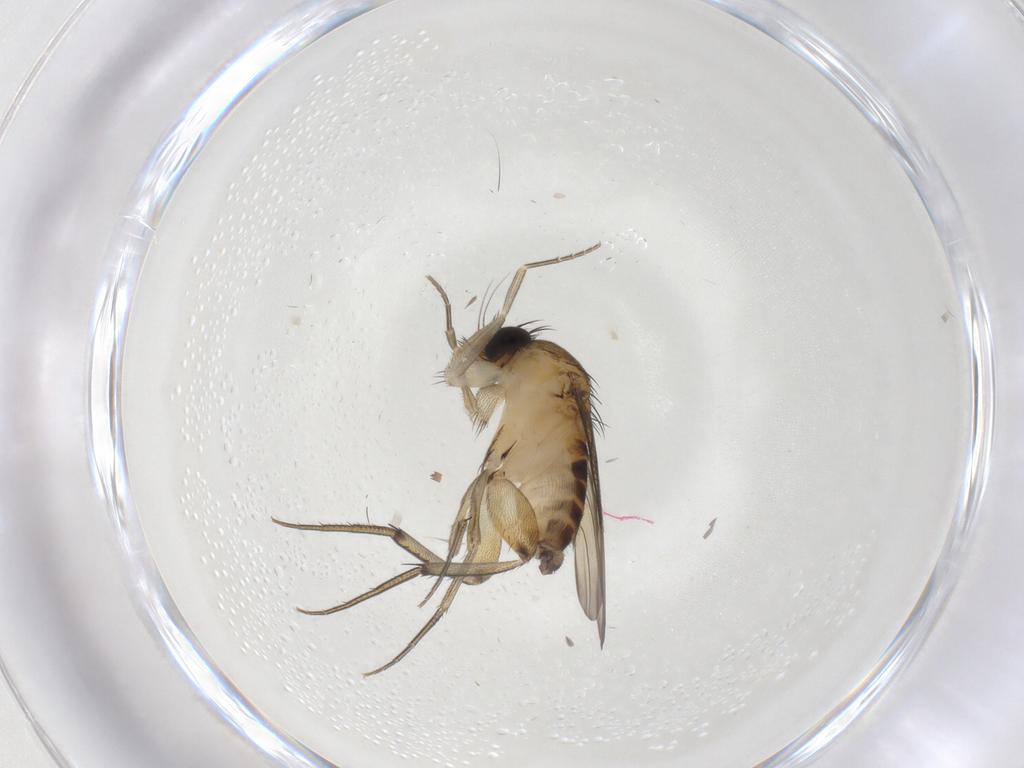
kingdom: Animalia
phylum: Arthropoda
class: Insecta
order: Diptera
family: Phoridae
